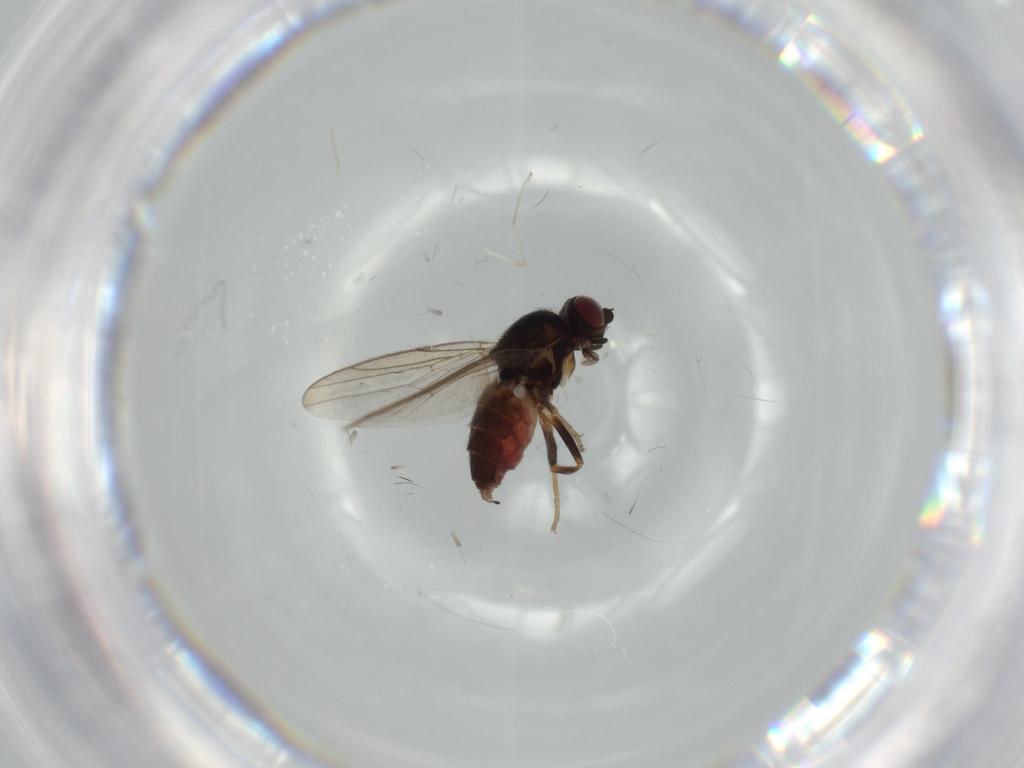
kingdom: Animalia
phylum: Arthropoda
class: Insecta
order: Diptera
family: Chloropidae
